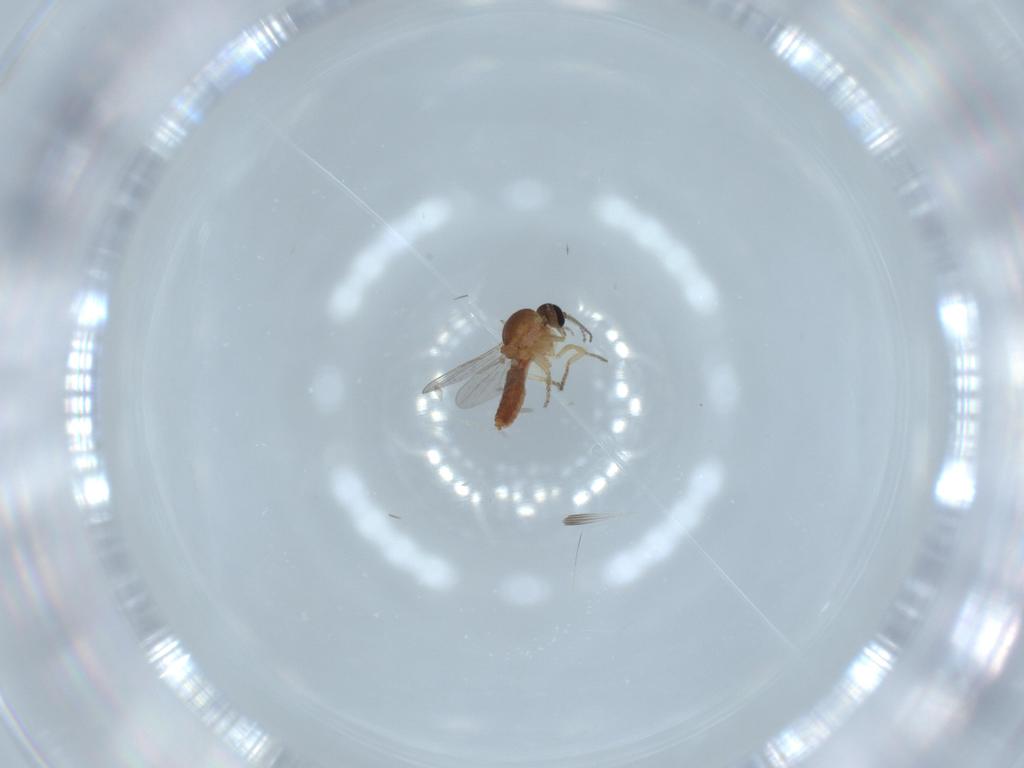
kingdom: Animalia
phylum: Arthropoda
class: Insecta
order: Diptera
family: Ceratopogonidae
